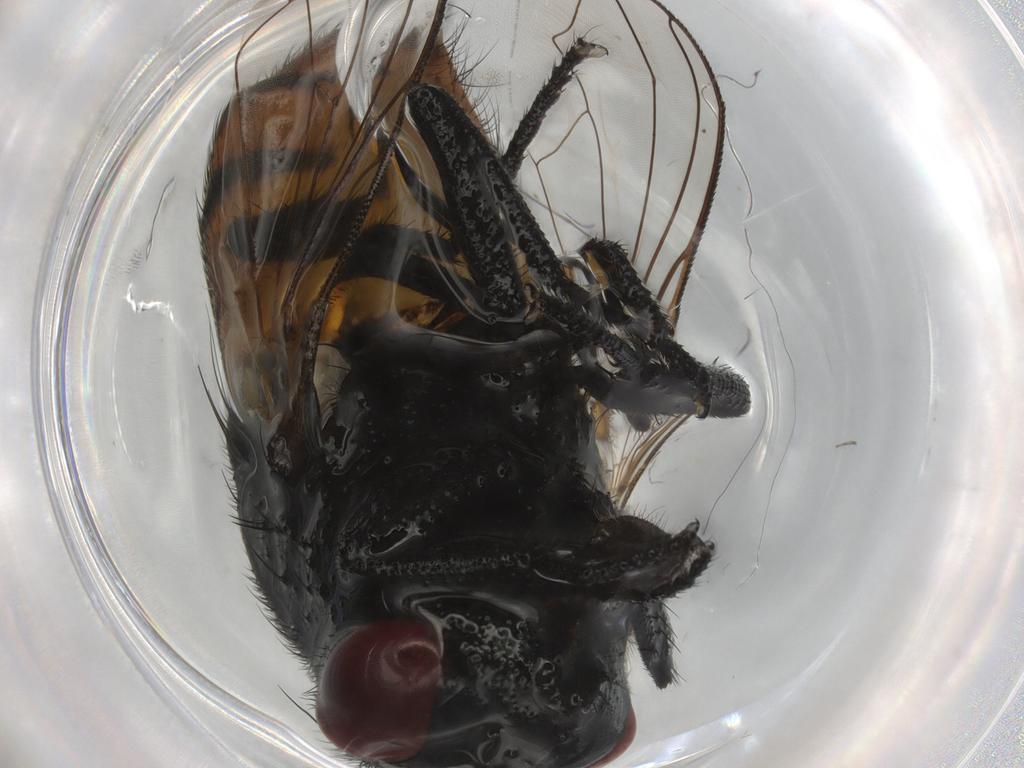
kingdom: Animalia
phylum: Arthropoda
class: Insecta
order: Diptera
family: Muscidae
